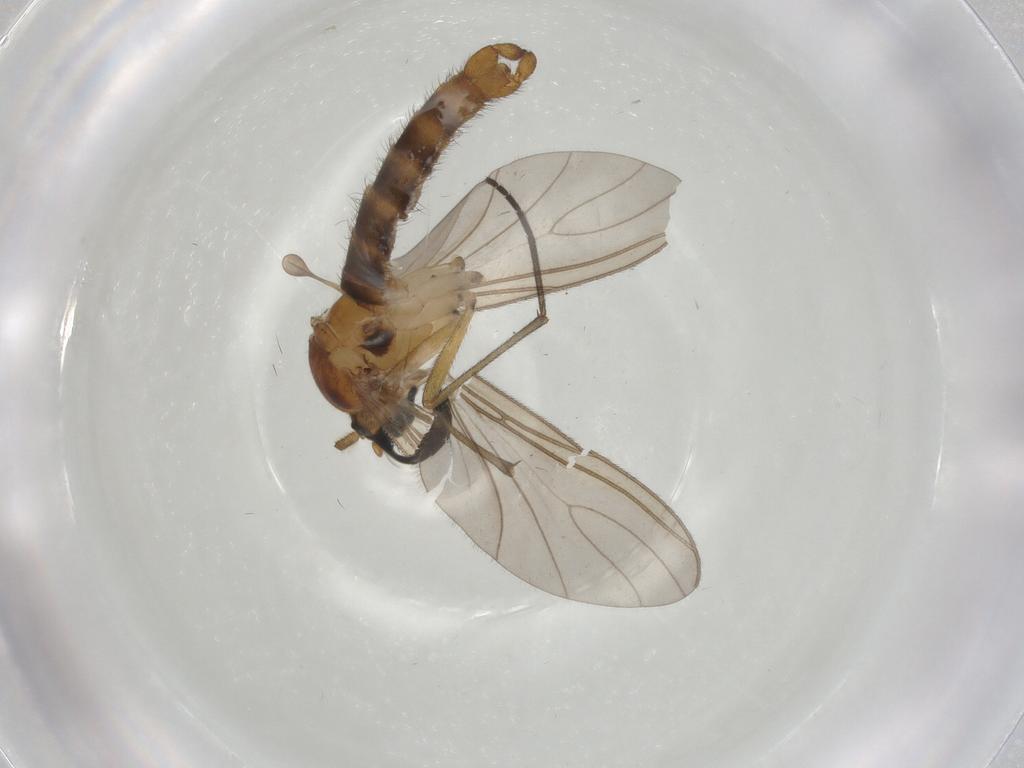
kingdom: Animalia
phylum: Arthropoda
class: Insecta
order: Diptera
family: Sciaridae
